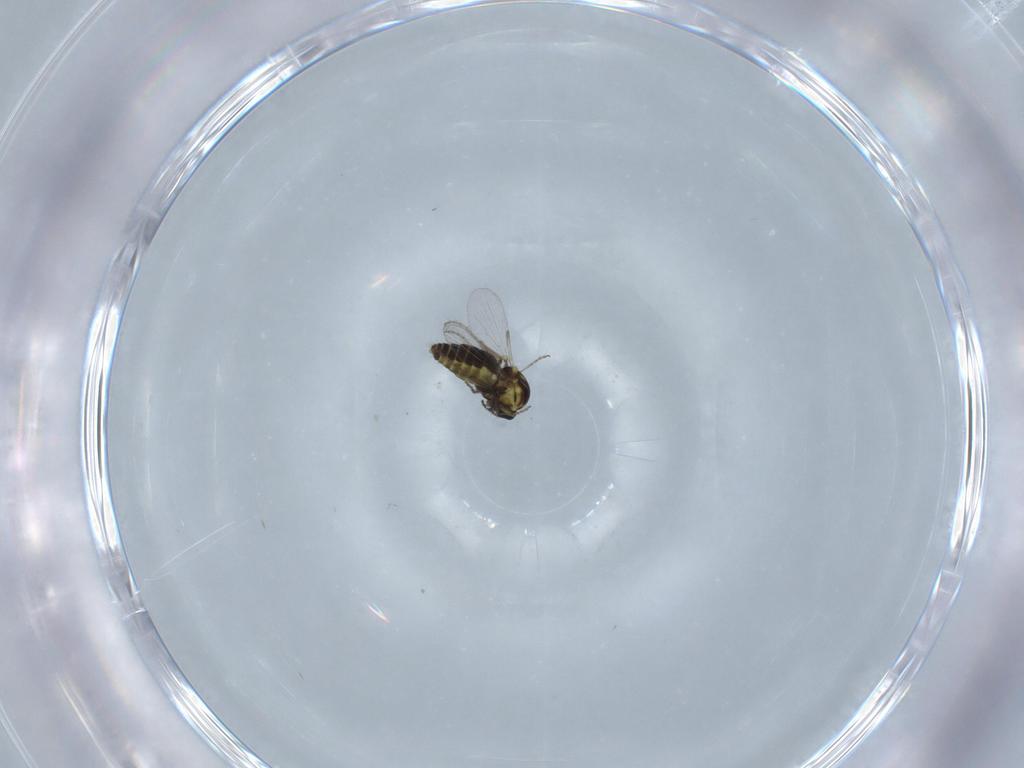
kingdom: Animalia
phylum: Arthropoda
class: Insecta
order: Diptera
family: Ceratopogonidae
